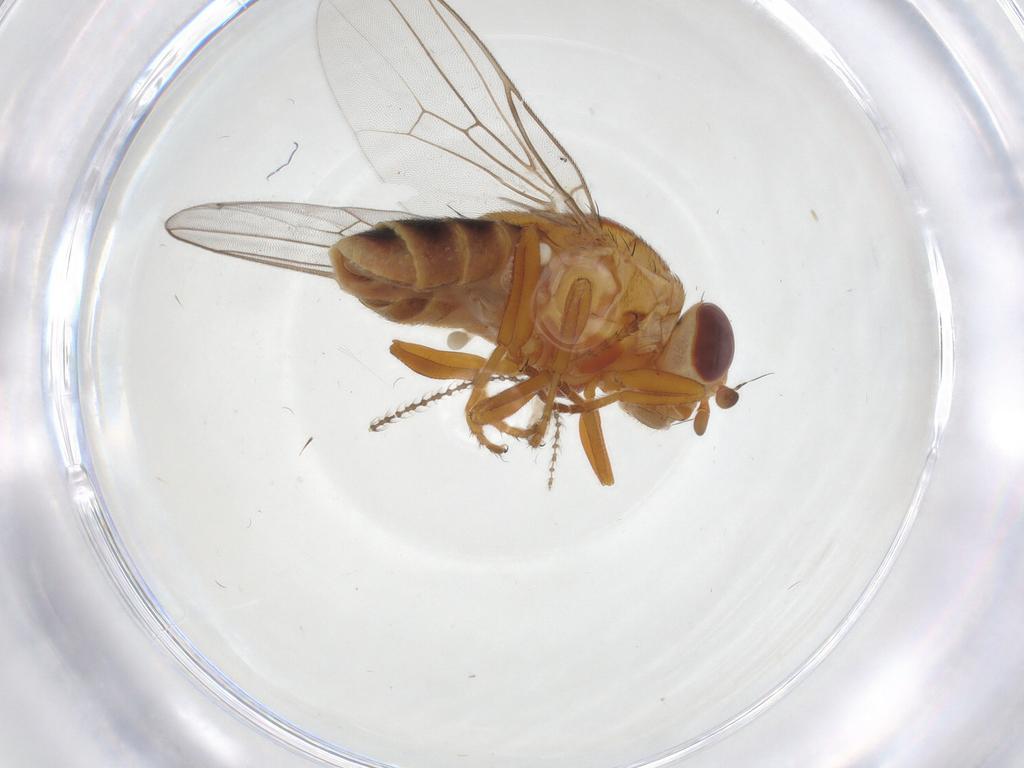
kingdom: Animalia
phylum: Arthropoda
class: Insecta
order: Diptera
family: Chloropidae
